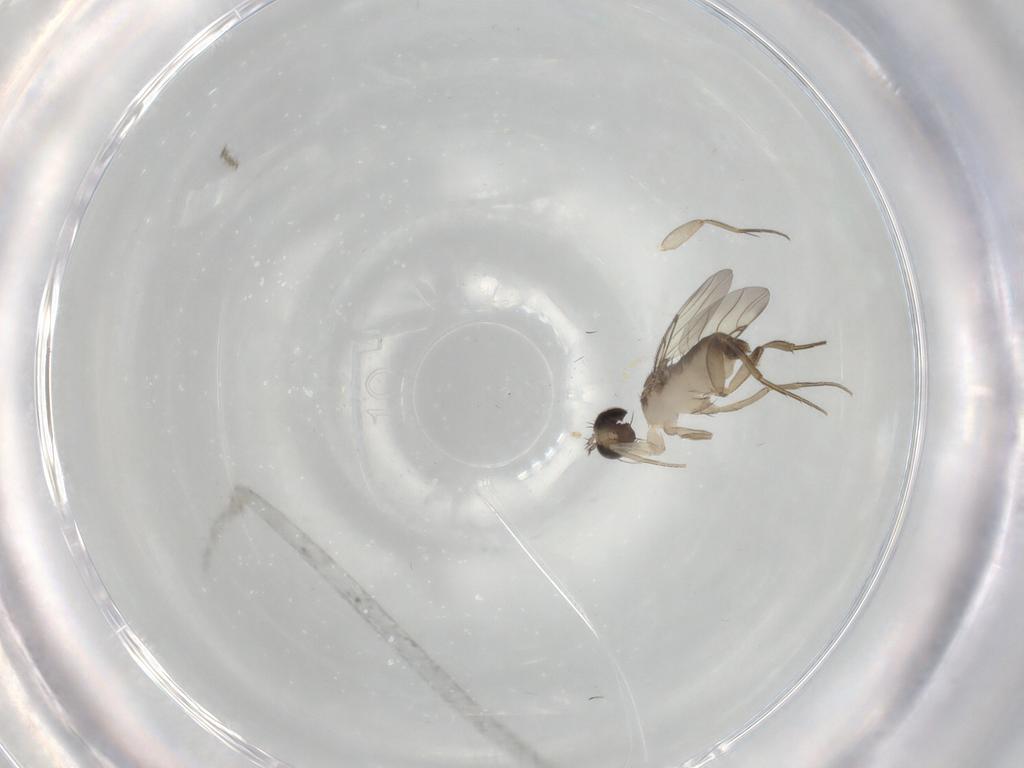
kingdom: Animalia
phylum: Arthropoda
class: Insecta
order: Diptera
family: Phoridae
